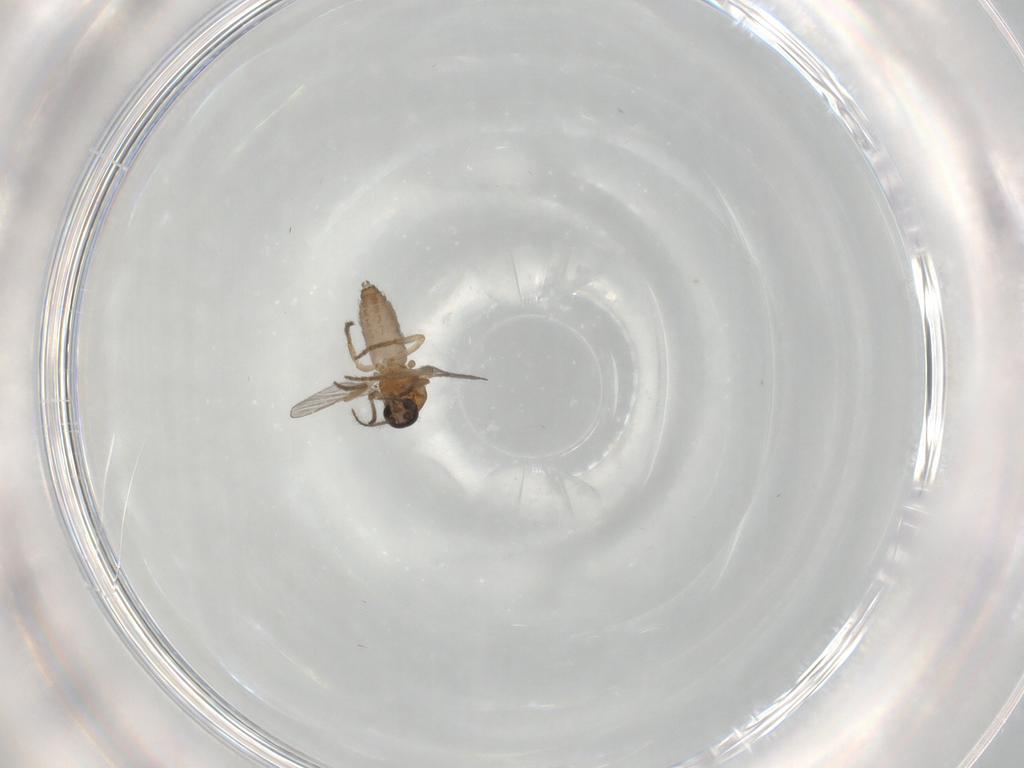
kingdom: Animalia
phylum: Arthropoda
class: Insecta
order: Diptera
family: Ceratopogonidae
